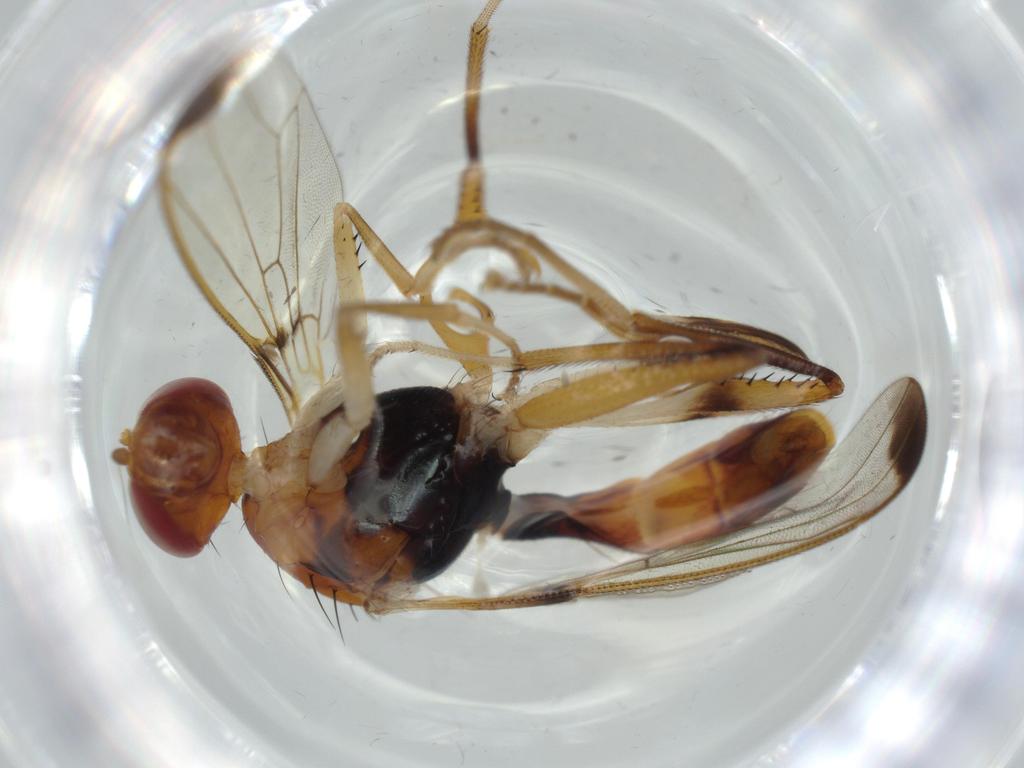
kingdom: Animalia
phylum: Arthropoda
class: Insecta
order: Diptera
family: Richardiidae
